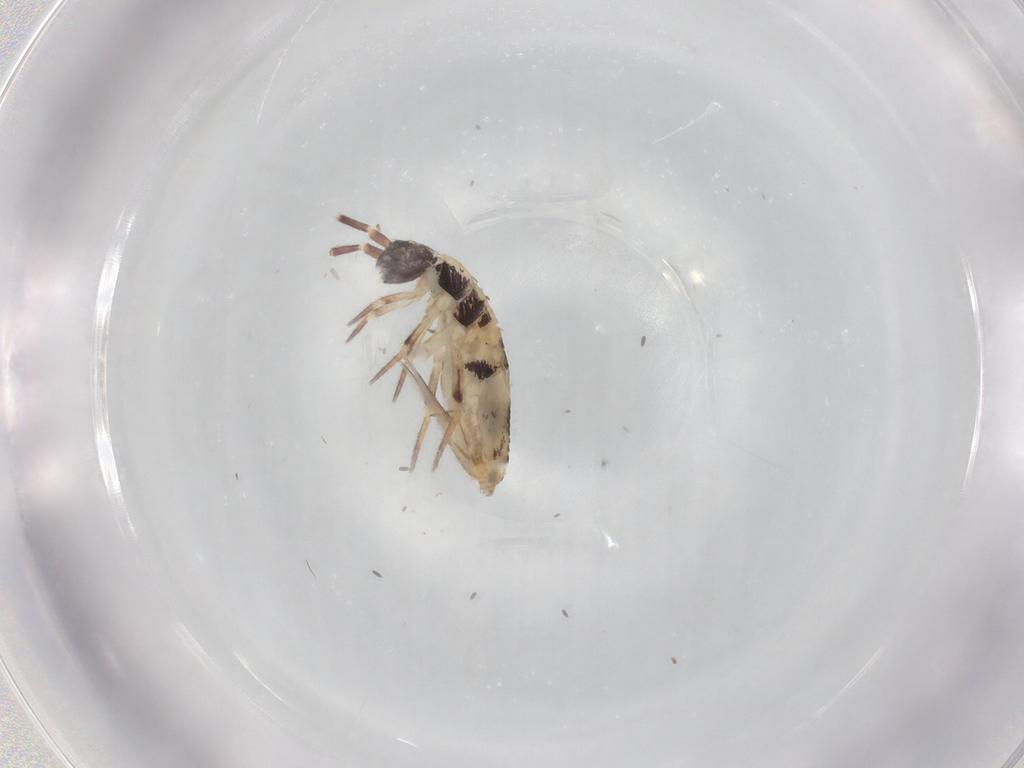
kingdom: Animalia
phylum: Arthropoda
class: Collembola
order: Entomobryomorpha
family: Entomobryidae
